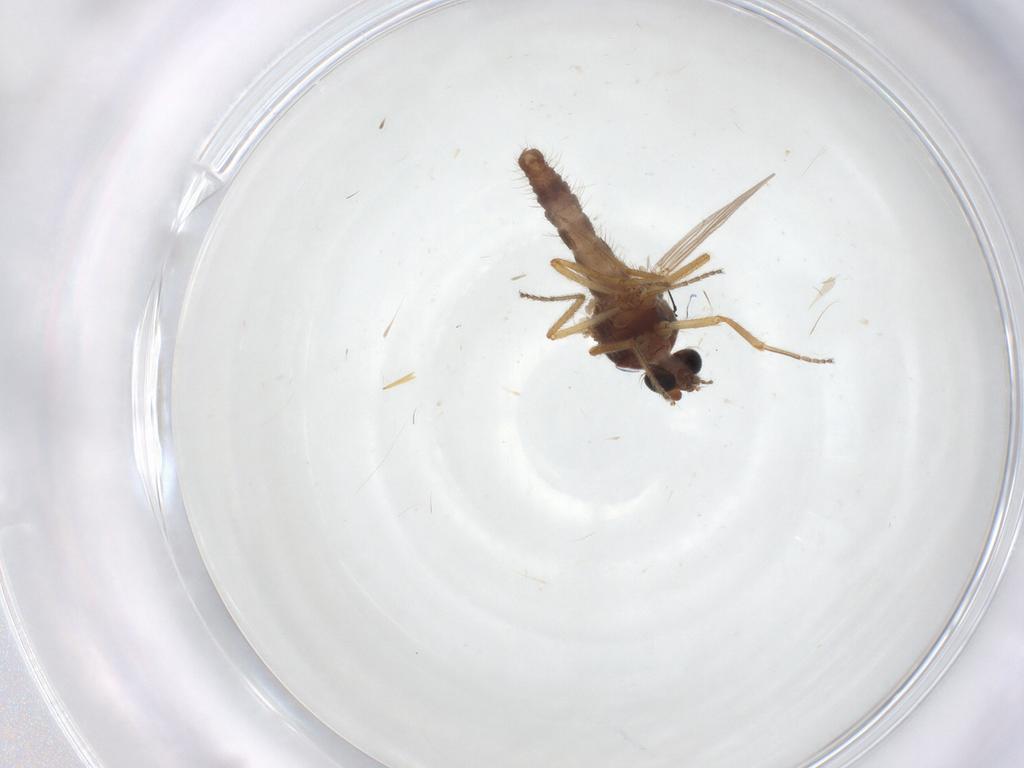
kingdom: Animalia
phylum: Arthropoda
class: Insecta
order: Diptera
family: Ceratopogonidae
